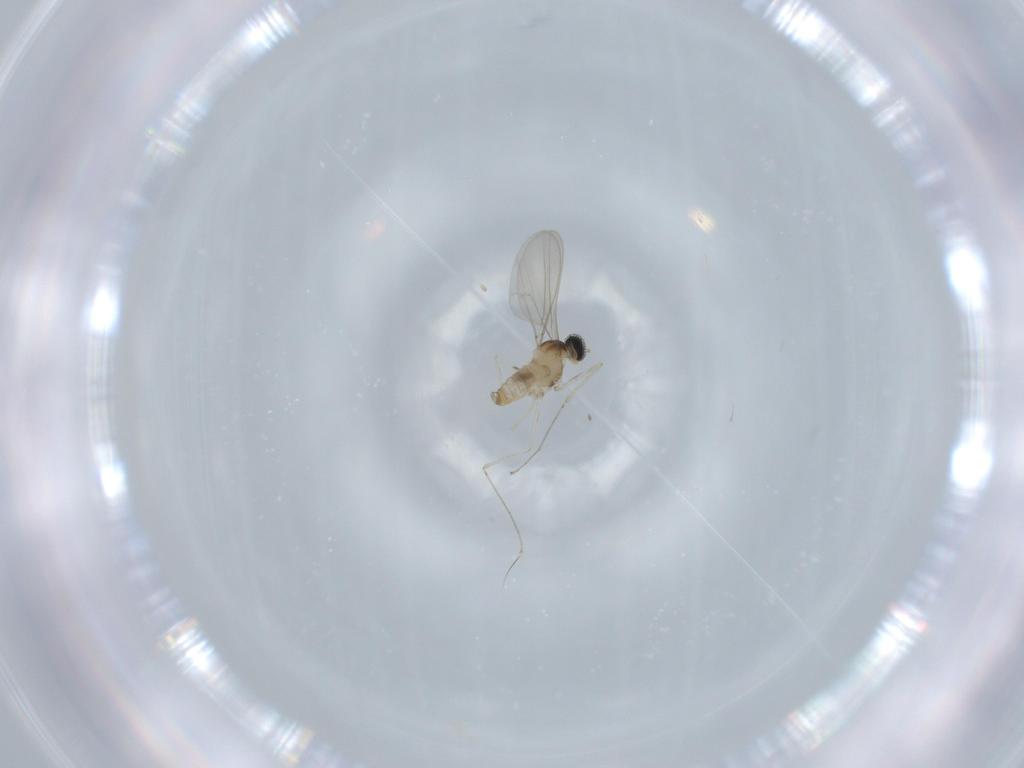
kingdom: Animalia
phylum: Arthropoda
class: Insecta
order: Diptera
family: Cecidomyiidae
